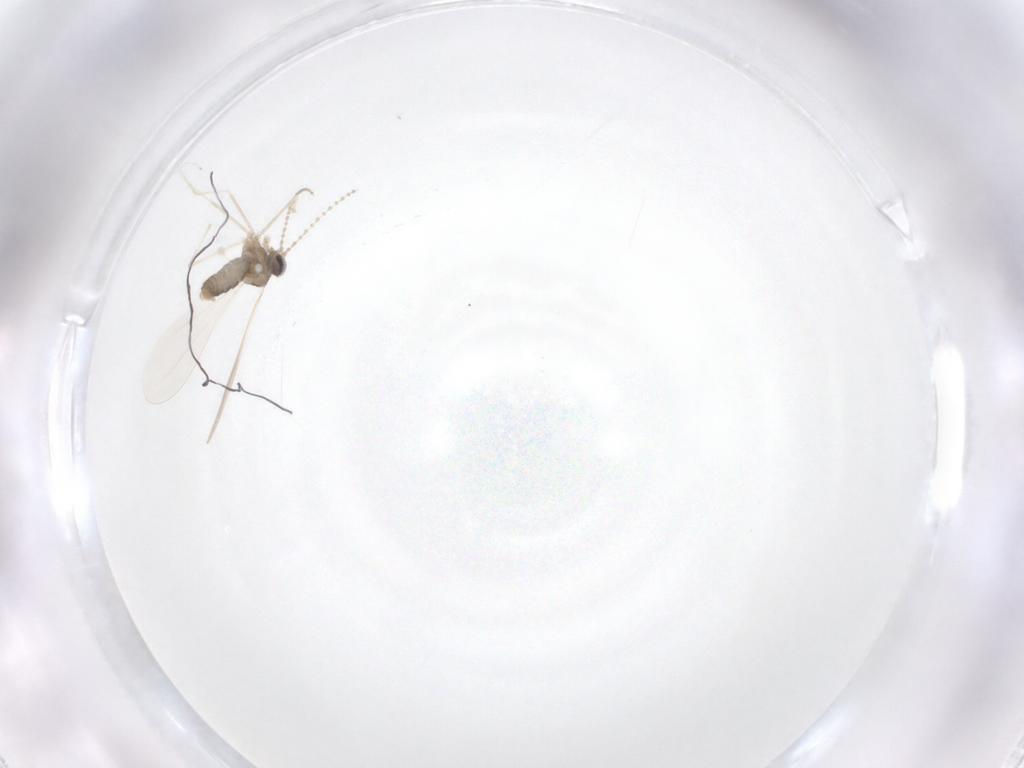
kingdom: Animalia
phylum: Arthropoda
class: Insecta
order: Diptera
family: Cecidomyiidae
